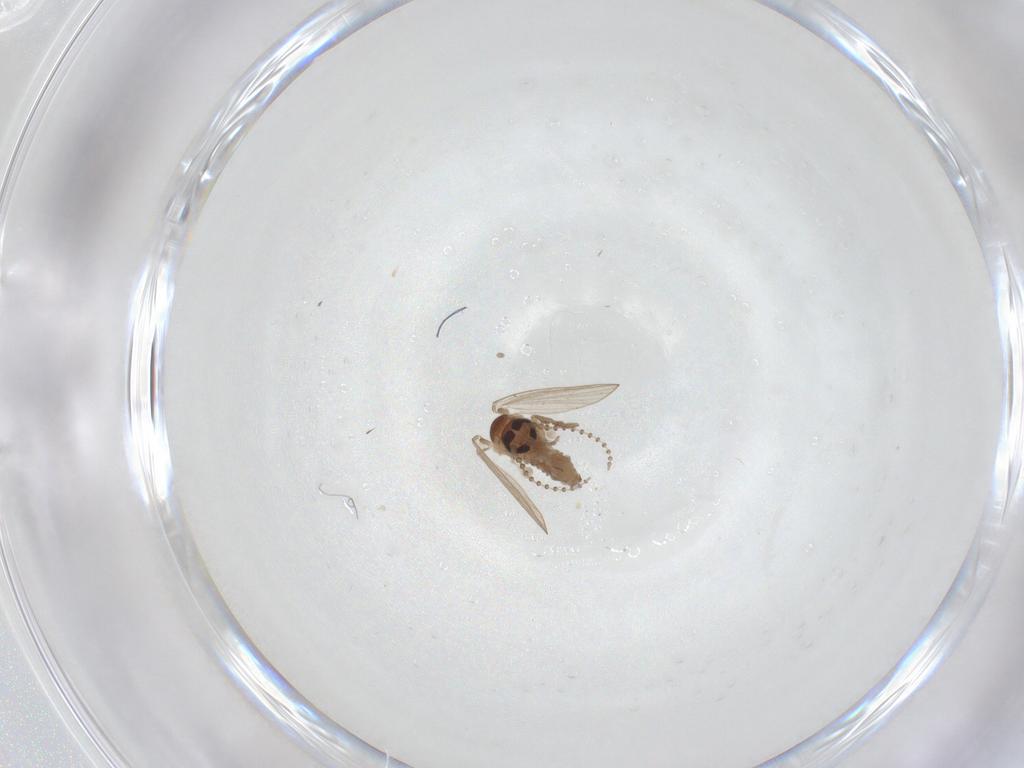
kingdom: Animalia
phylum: Arthropoda
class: Insecta
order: Diptera
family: Psychodidae
